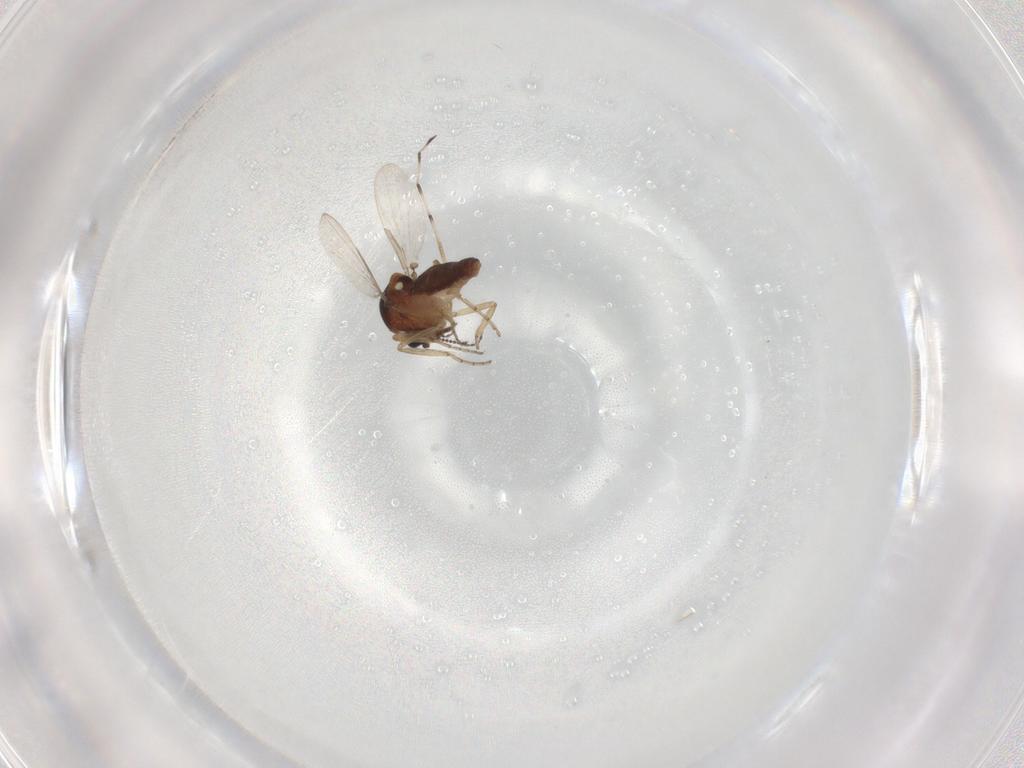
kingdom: Animalia
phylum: Arthropoda
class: Insecta
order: Diptera
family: Ceratopogonidae
